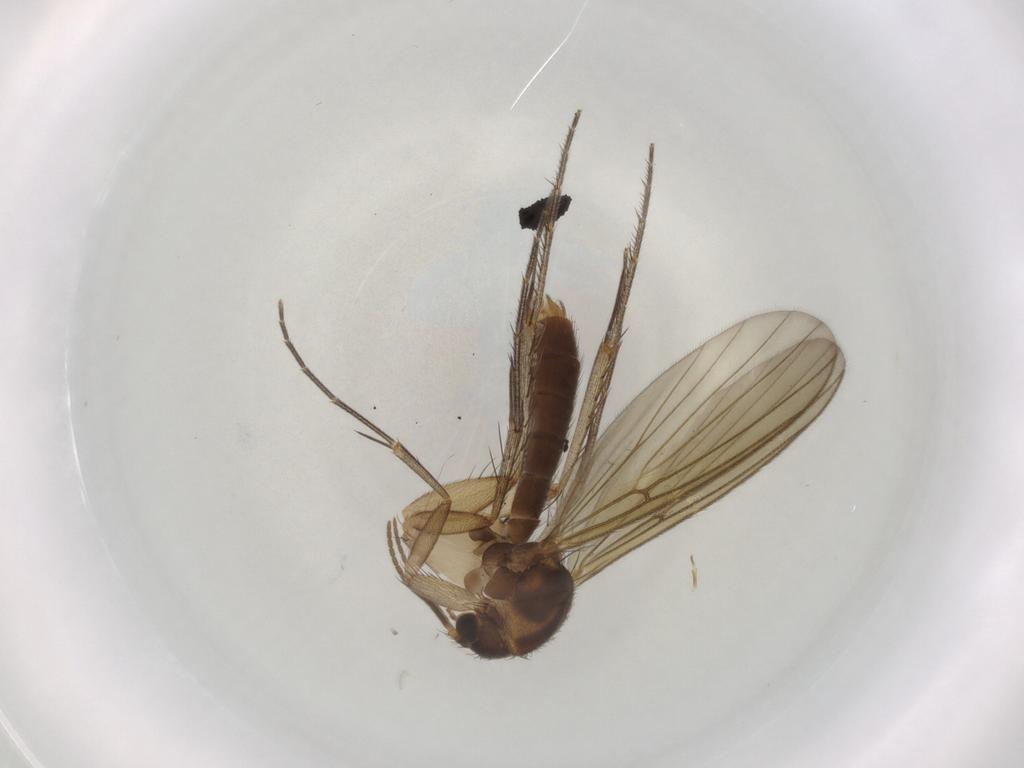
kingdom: Animalia
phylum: Arthropoda
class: Insecta
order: Diptera
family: Mycetophilidae
